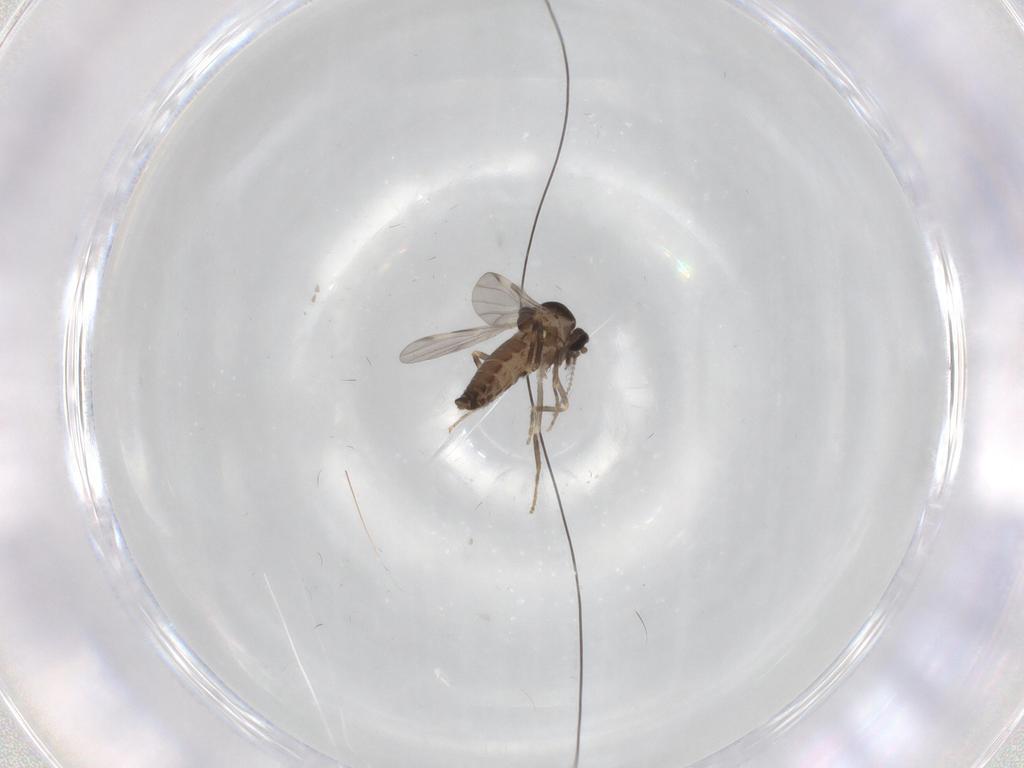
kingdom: Animalia
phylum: Arthropoda
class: Insecta
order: Diptera
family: Ceratopogonidae
